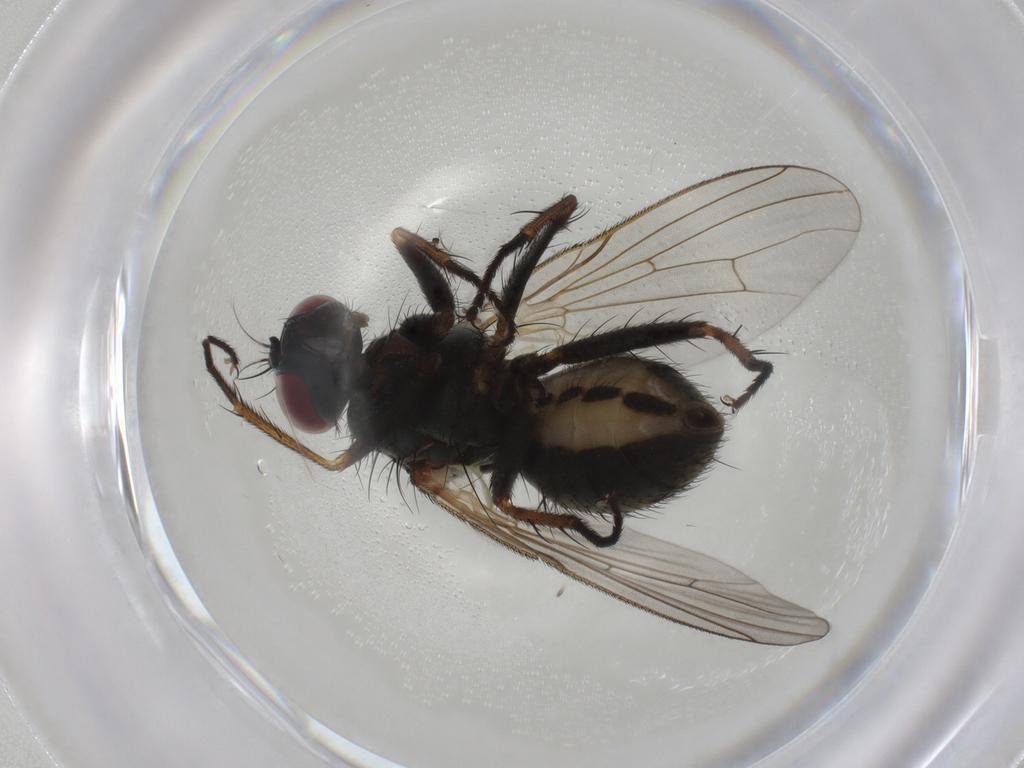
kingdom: Animalia
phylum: Arthropoda
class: Insecta
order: Diptera
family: Muscidae
